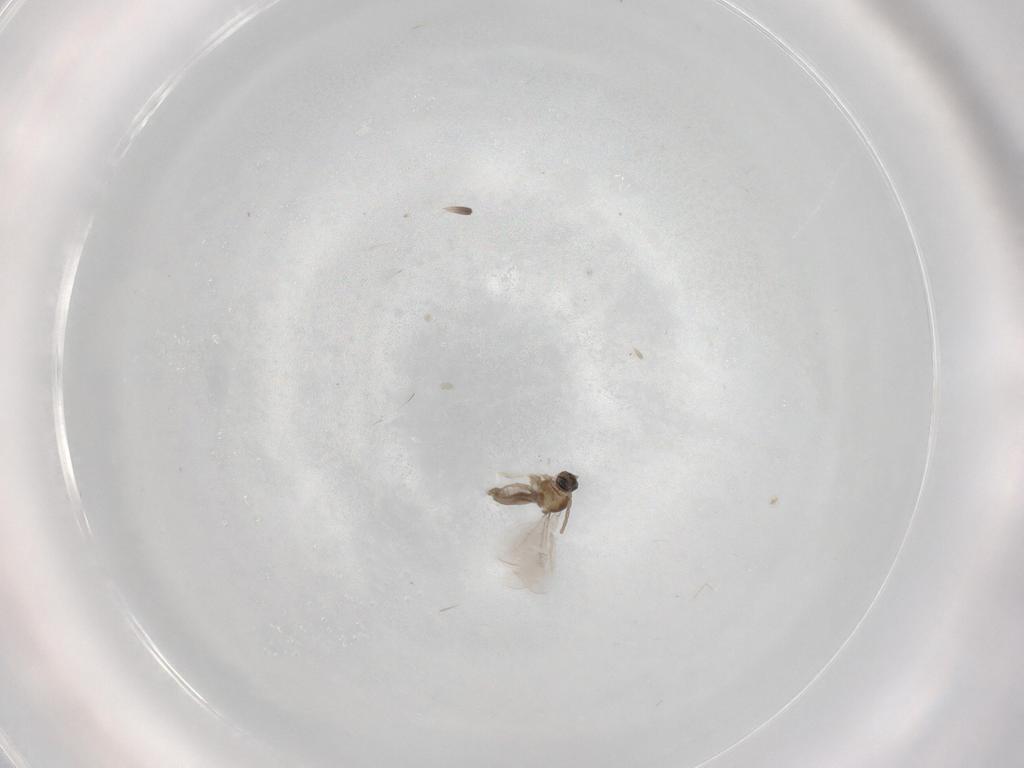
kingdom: Animalia
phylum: Arthropoda
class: Insecta
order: Diptera
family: Cecidomyiidae
